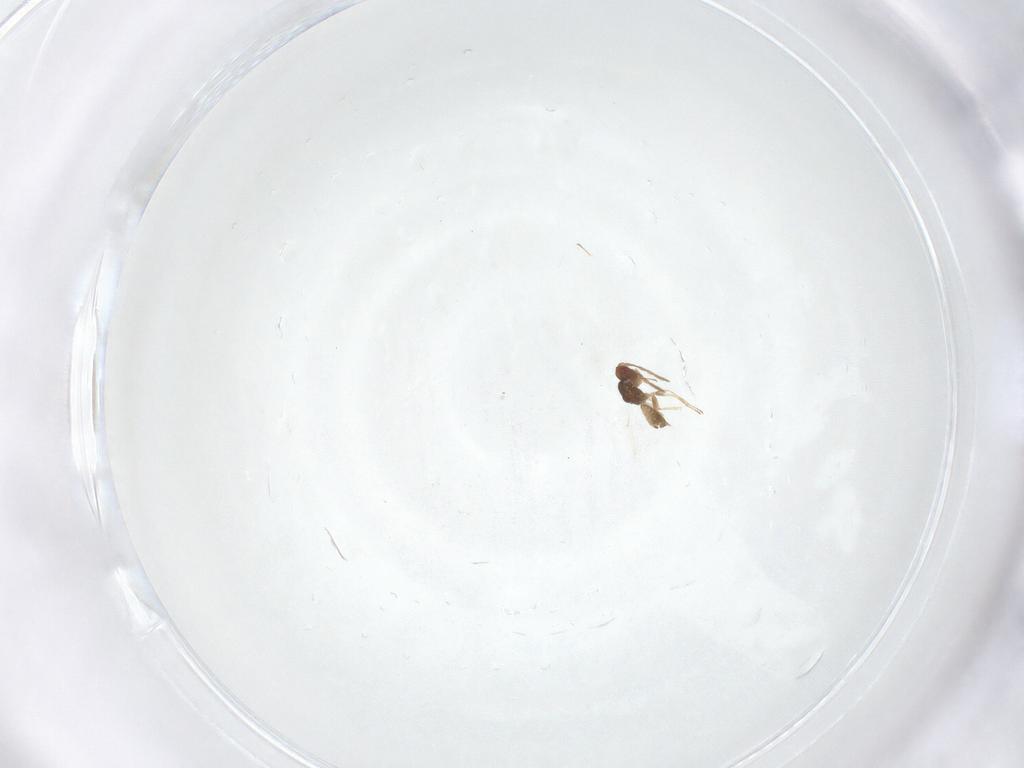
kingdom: Animalia
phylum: Arthropoda
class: Insecta
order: Hymenoptera
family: Eulophidae
